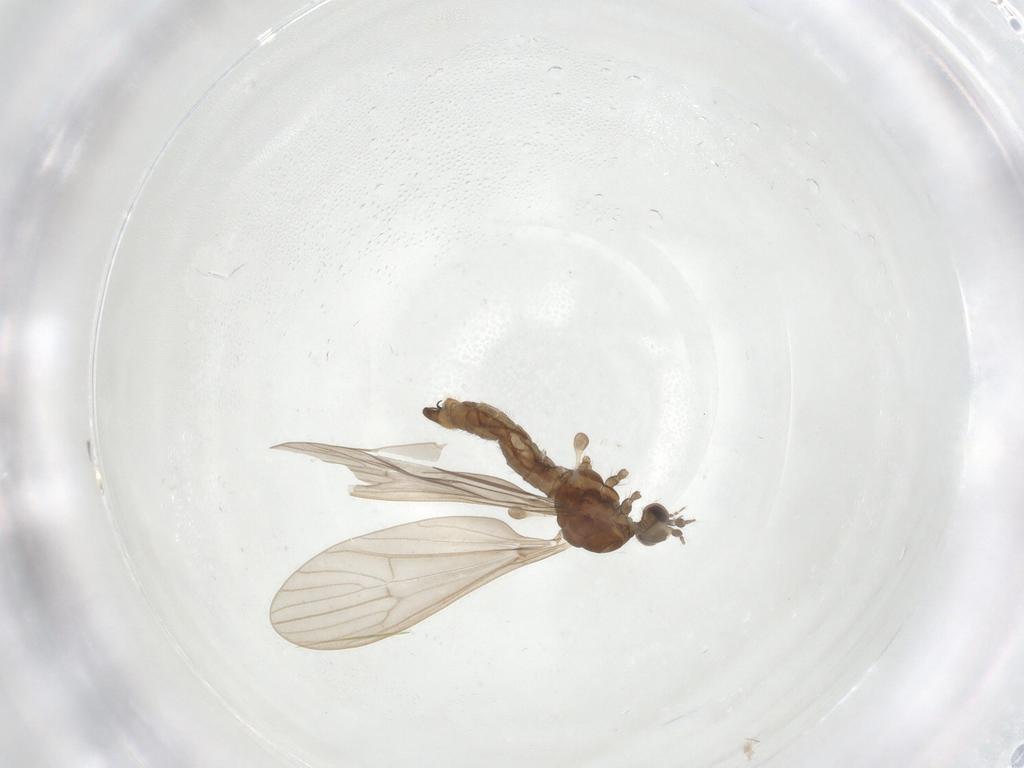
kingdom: Animalia
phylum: Arthropoda
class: Insecta
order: Diptera
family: Limoniidae
